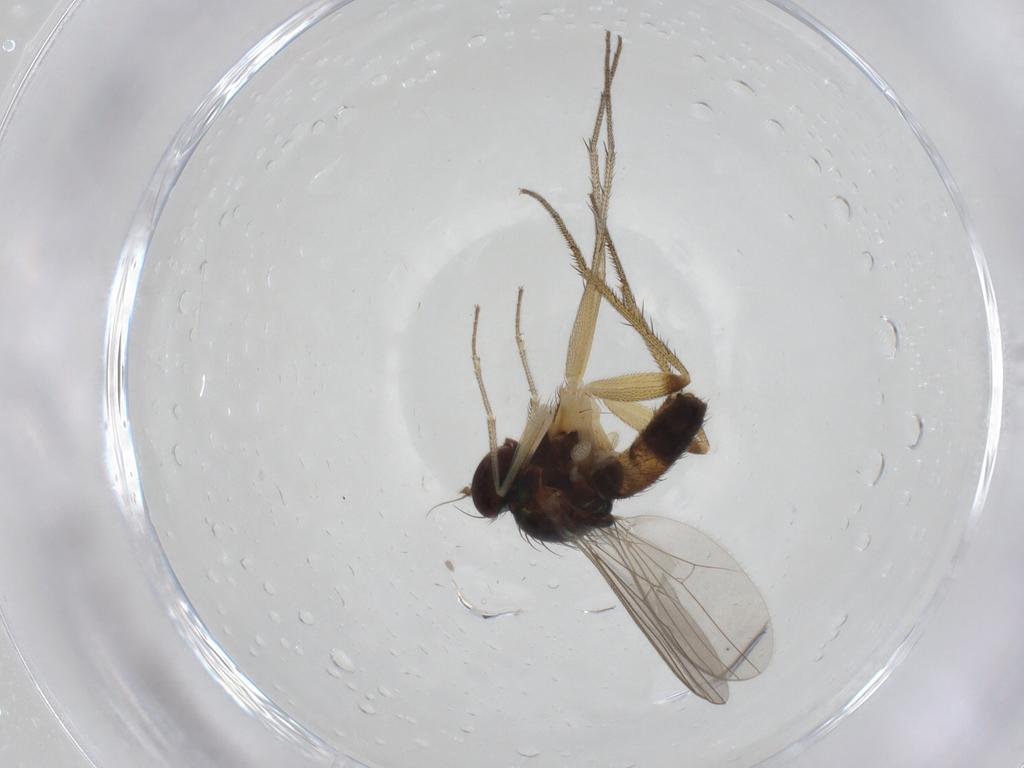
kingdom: Animalia
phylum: Arthropoda
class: Insecta
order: Diptera
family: Dolichopodidae
